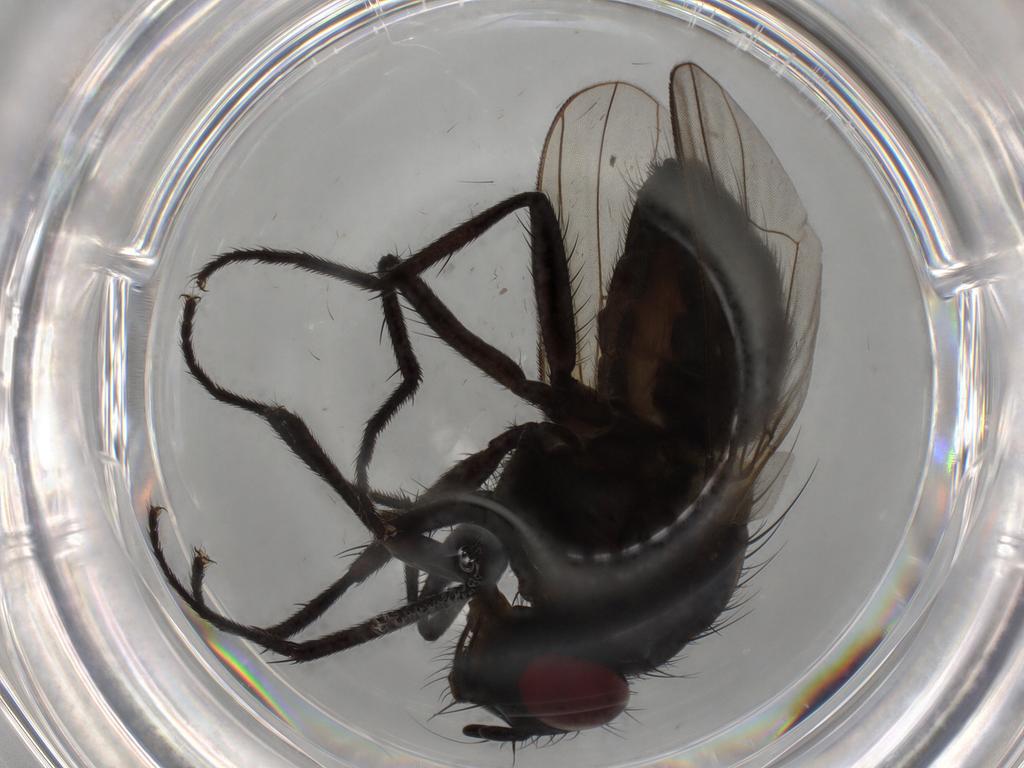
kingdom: Animalia
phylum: Arthropoda
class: Insecta
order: Diptera
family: Muscidae
